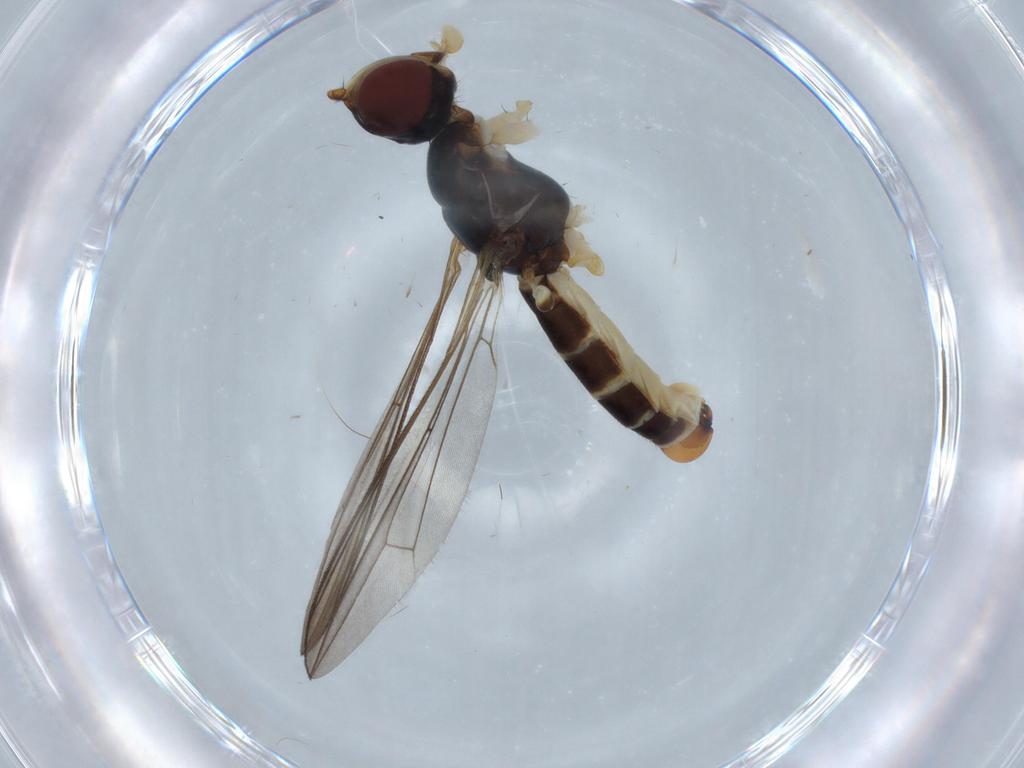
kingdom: Animalia
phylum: Arthropoda
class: Insecta
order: Diptera
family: Micropezidae
